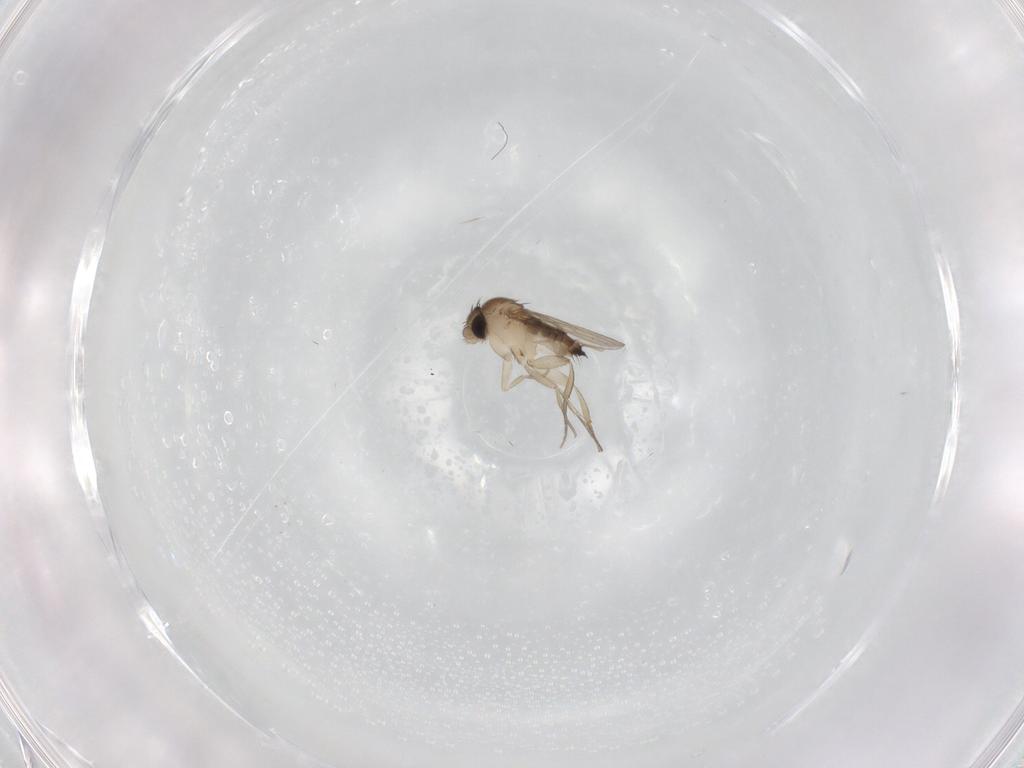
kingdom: Animalia
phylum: Arthropoda
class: Insecta
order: Diptera
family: Phoridae
